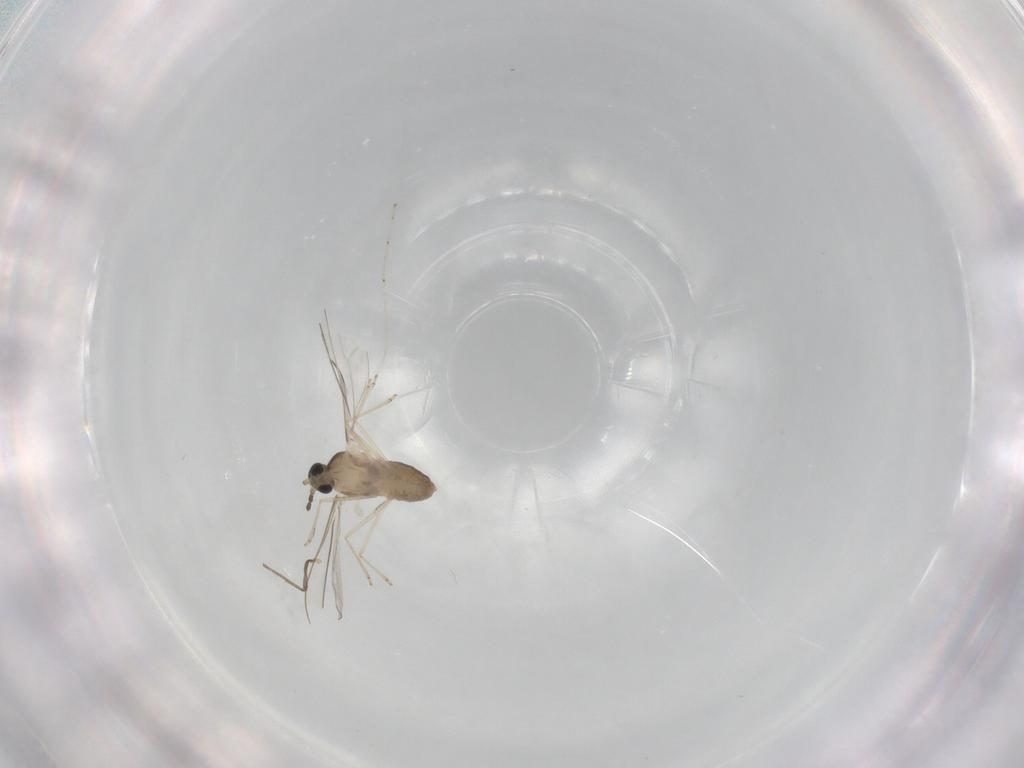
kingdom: Animalia
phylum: Arthropoda
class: Insecta
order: Diptera
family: Cecidomyiidae
